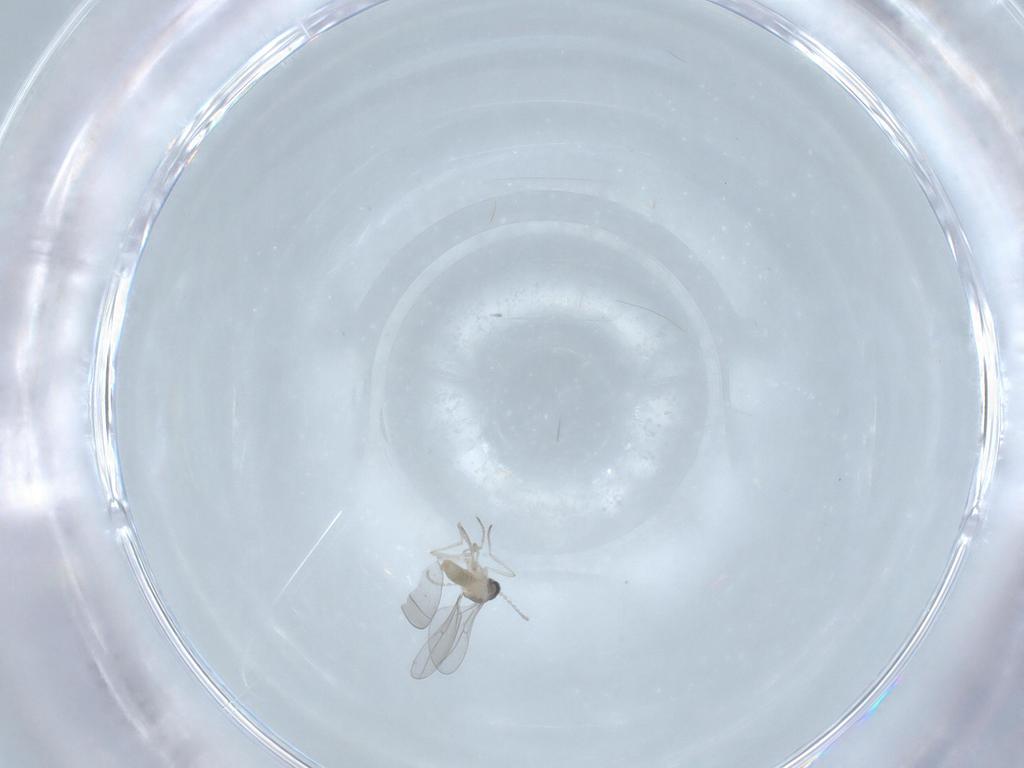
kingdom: Animalia
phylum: Arthropoda
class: Insecta
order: Diptera
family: Cecidomyiidae
